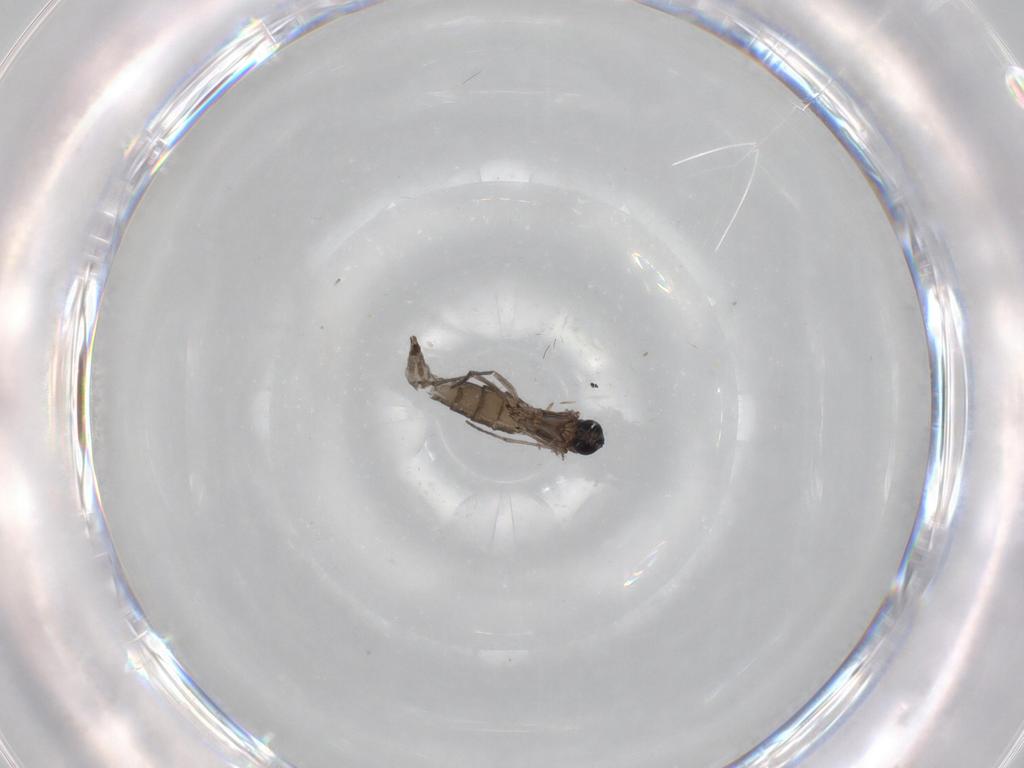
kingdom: Animalia
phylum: Arthropoda
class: Insecta
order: Diptera
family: Sciaridae
